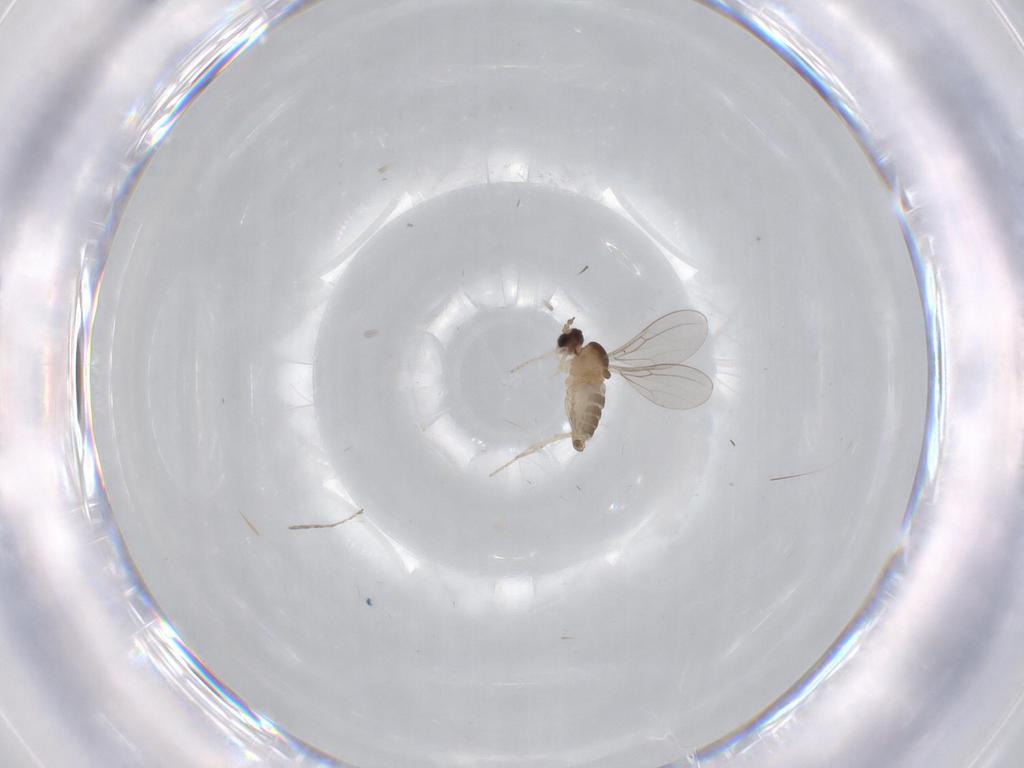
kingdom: Animalia
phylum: Arthropoda
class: Insecta
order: Diptera
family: Cecidomyiidae
